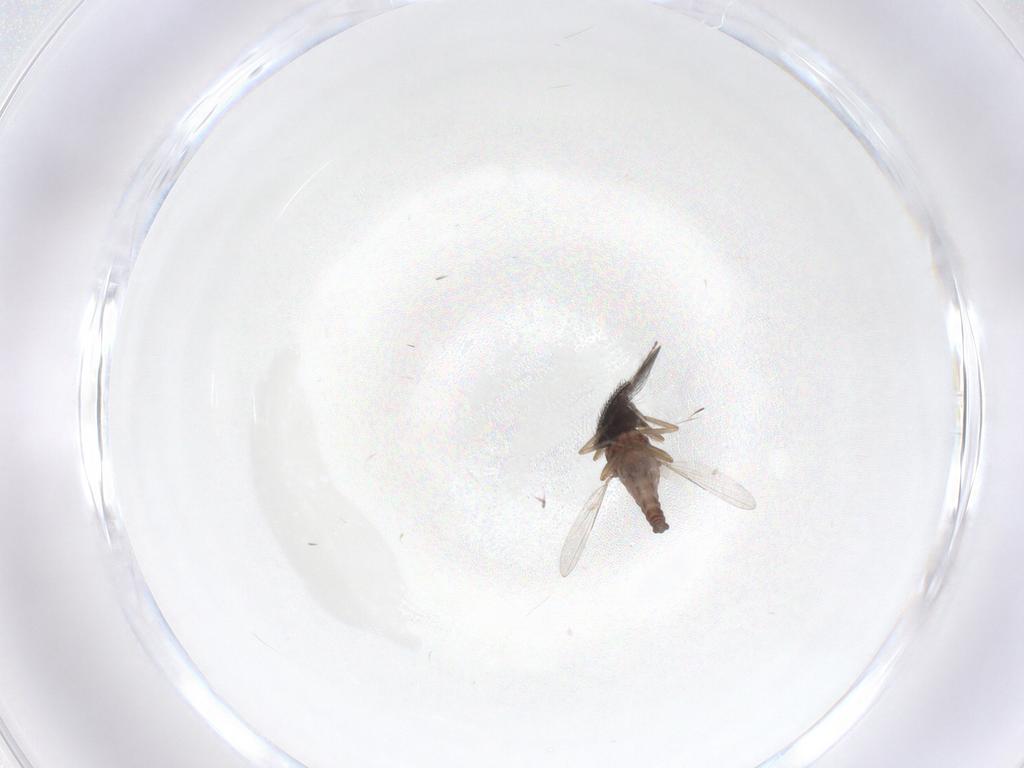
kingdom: Animalia
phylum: Arthropoda
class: Insecta
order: Diptera
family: Ceratopogonidae
